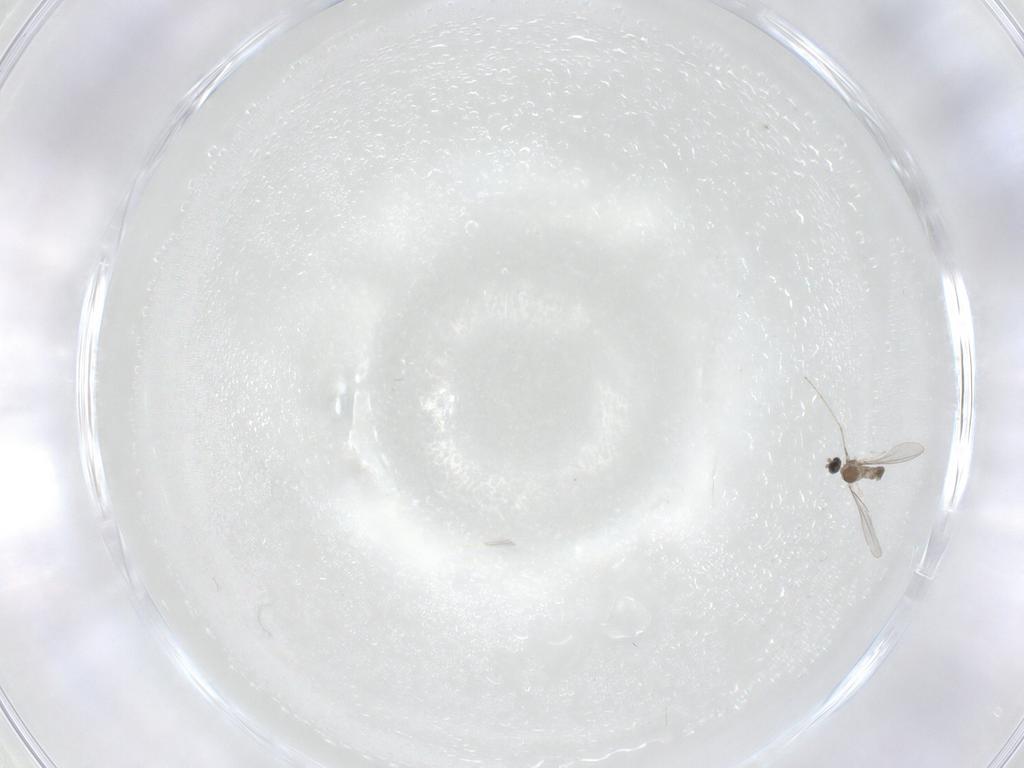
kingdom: Animalia
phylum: Arthropoda
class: Insecta
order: Diptera
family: Cecidomyiidae
